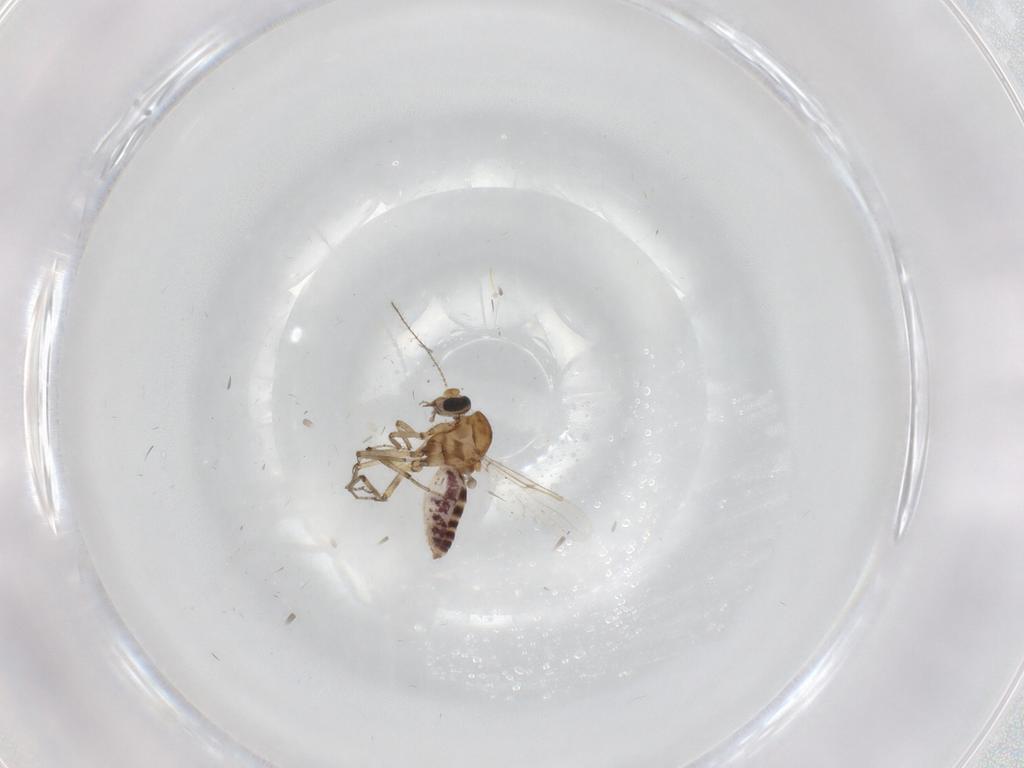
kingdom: Animalia
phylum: Arthropoda
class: Insecta
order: Diptera
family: Ceratopogonidae
